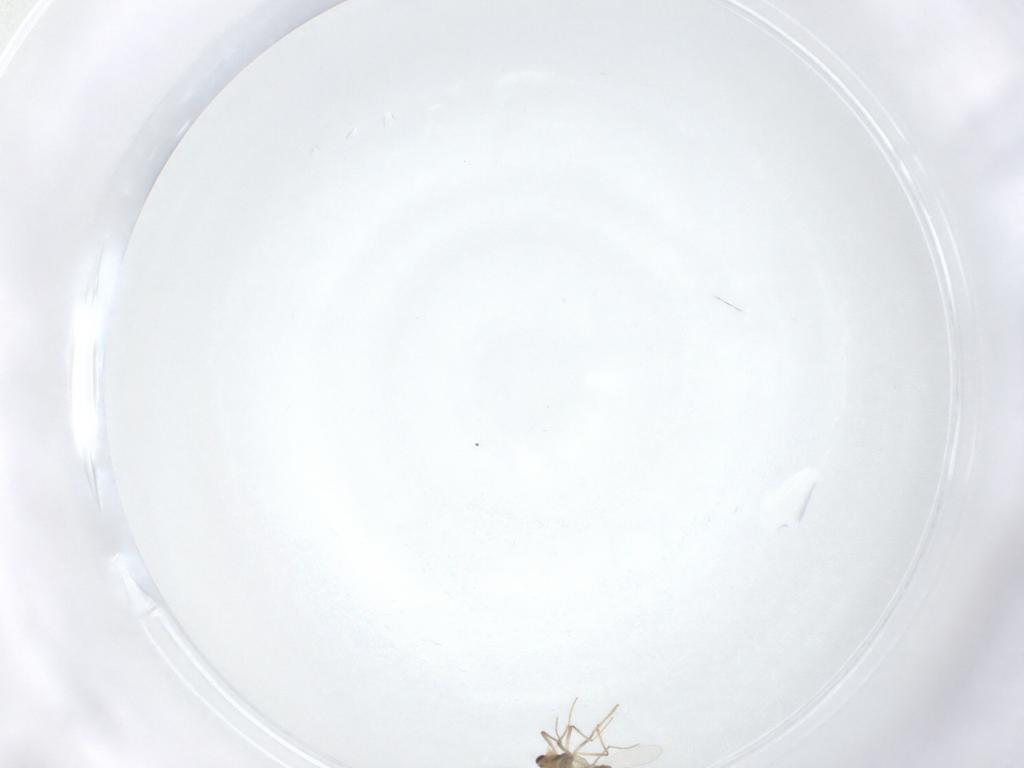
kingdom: Animalia
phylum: Arthropoda
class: Insecta
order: Diptera
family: Chironomidae
